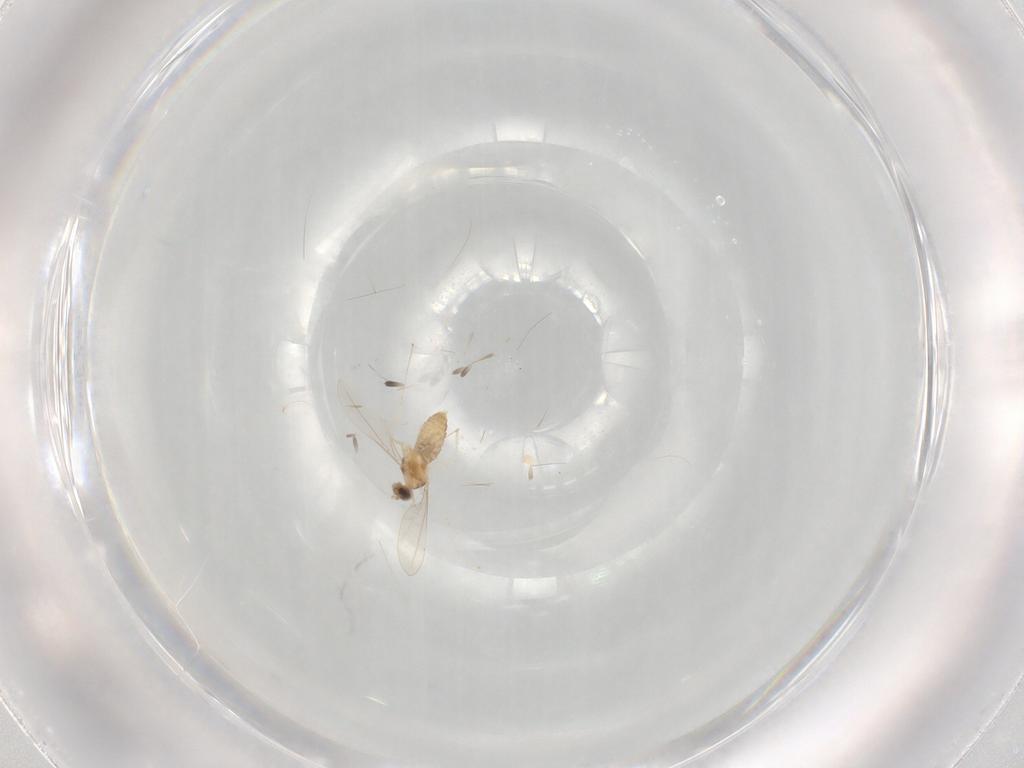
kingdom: Animalia
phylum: Arthropoda
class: Insecta
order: Diptera
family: Cecidomyiidae
